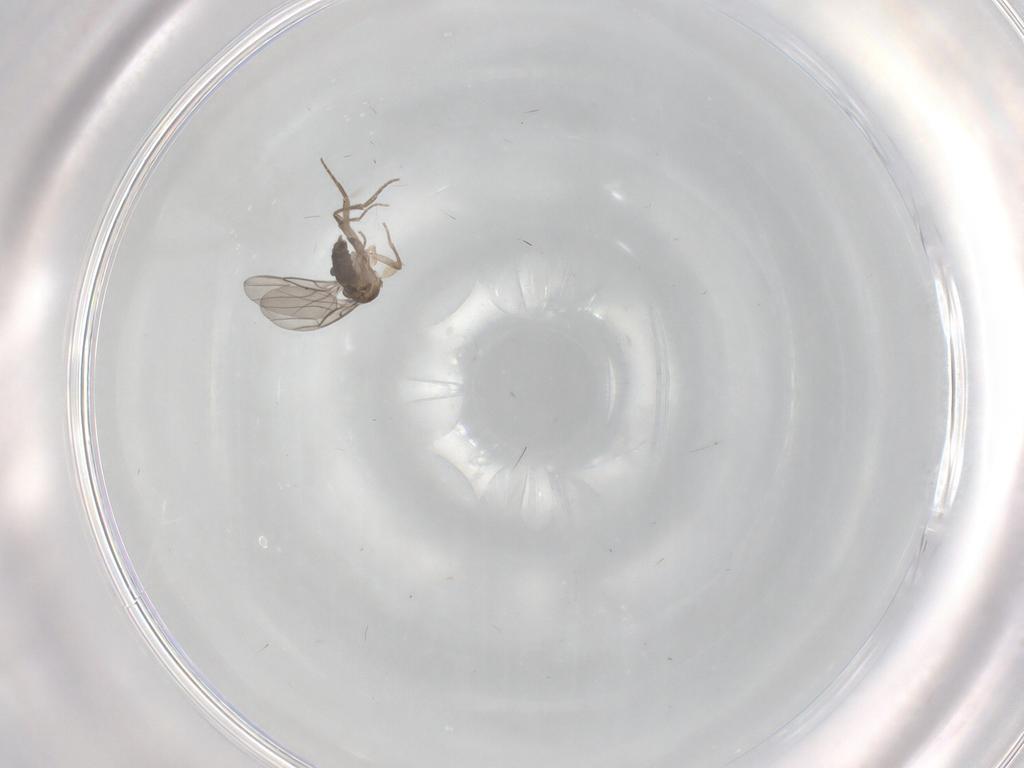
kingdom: Animalia
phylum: Arthropoda
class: Insecta
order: Diptera
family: Phoridae
